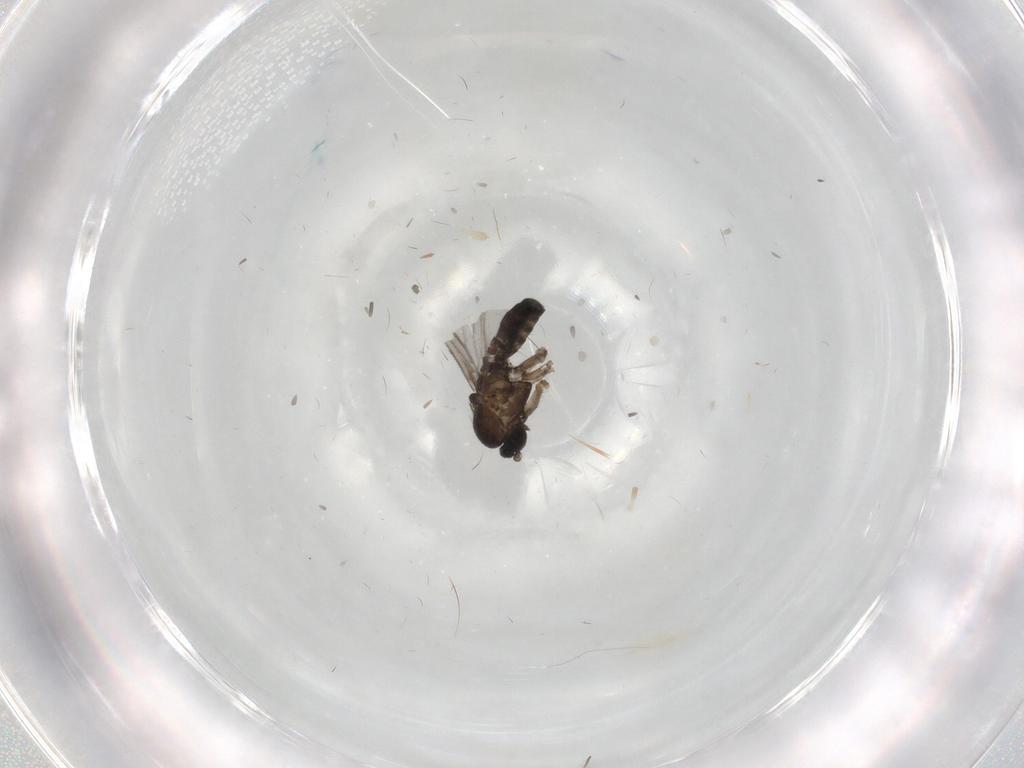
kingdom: Animalia
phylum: Arthropoda
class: Insecta
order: Diptera
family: Sciaridae
